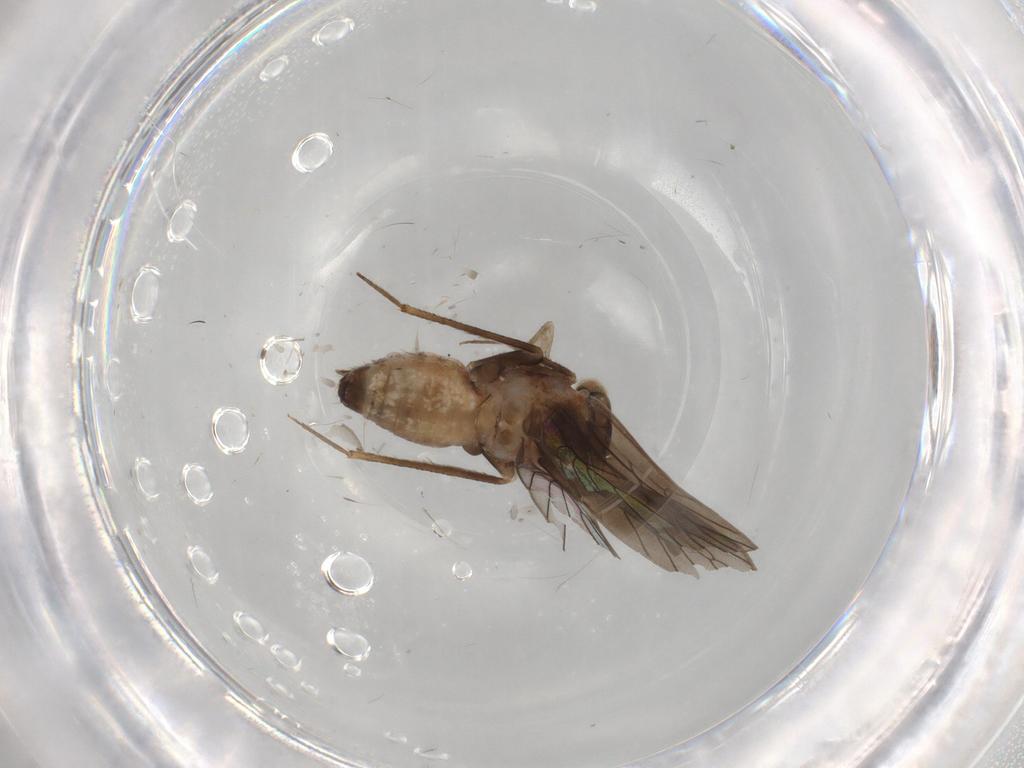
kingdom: Animalia
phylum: Arthropoda
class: Insecta
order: Psocodea
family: Lepidopsocidae
